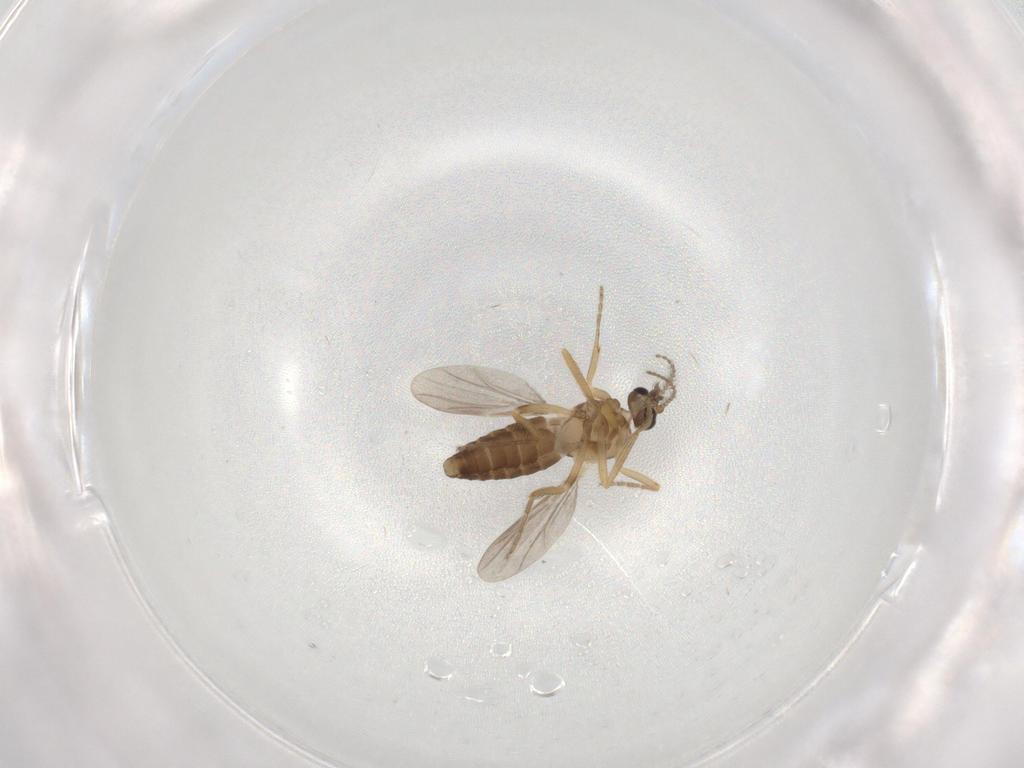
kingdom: Animalia
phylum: Arthropoda
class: Insecta
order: Diptera
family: Ceratopogonidae
